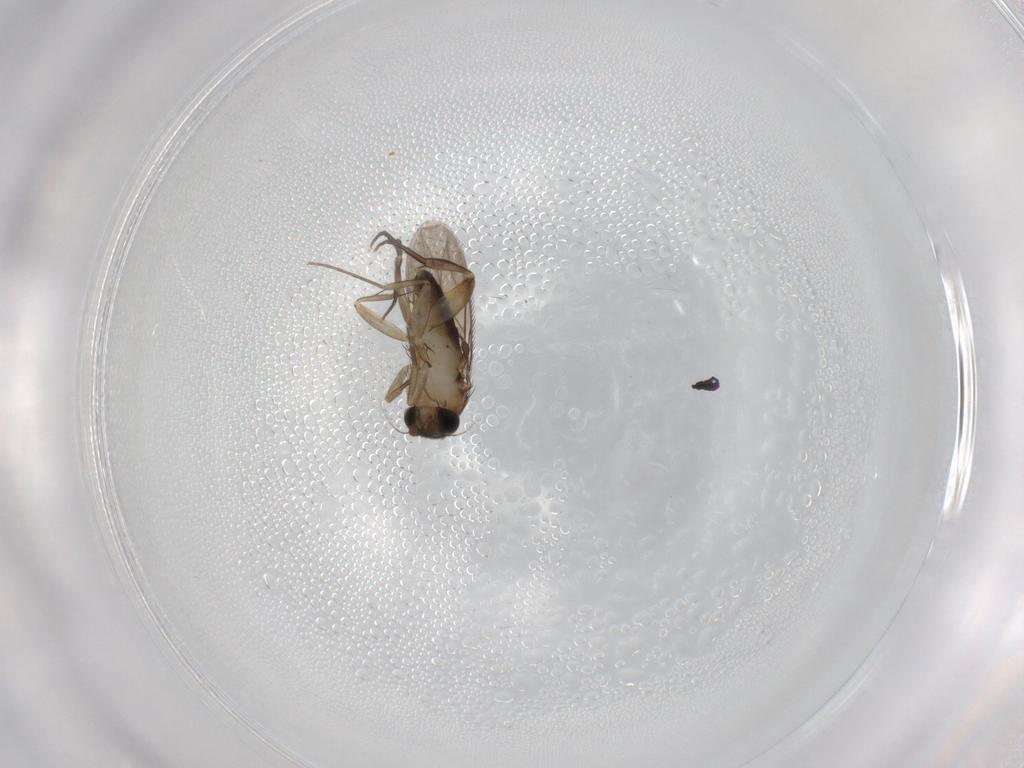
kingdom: Animalia
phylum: Arthropoda
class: Insecta
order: Diptera
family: Phoridae
